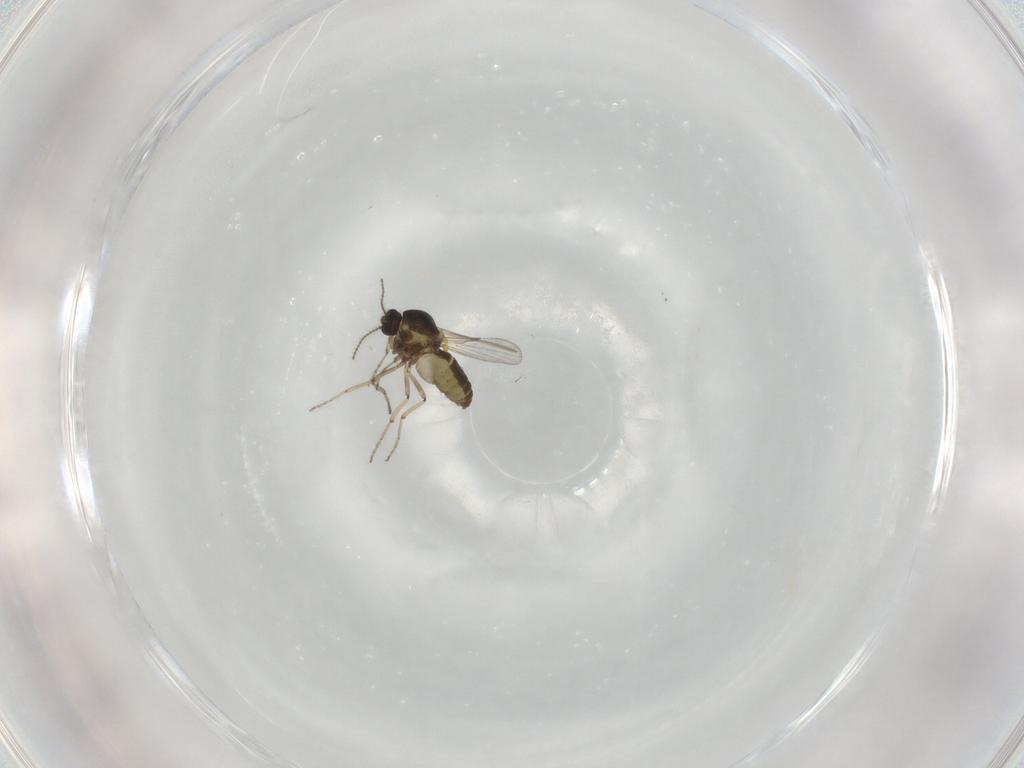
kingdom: Animalia
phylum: Arthropoda
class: Insecta
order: Diptera
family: Ceratopogonidae
